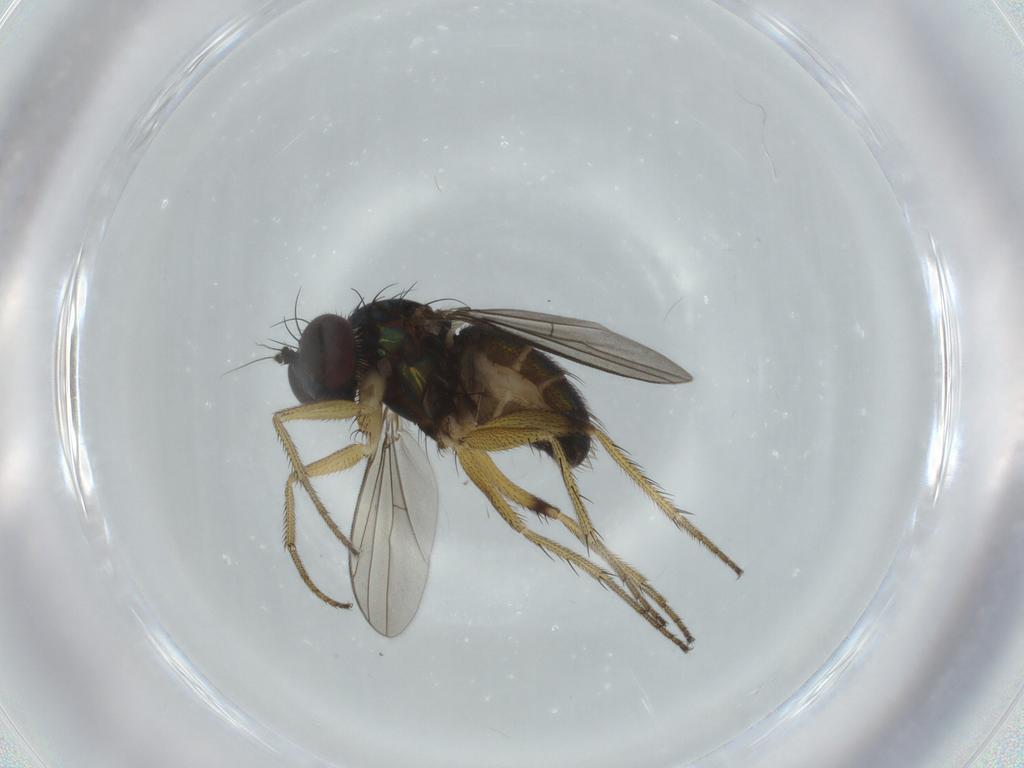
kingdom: Animalia
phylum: Arthropoda
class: Insecta
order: Diptera
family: Dolichopodidae
